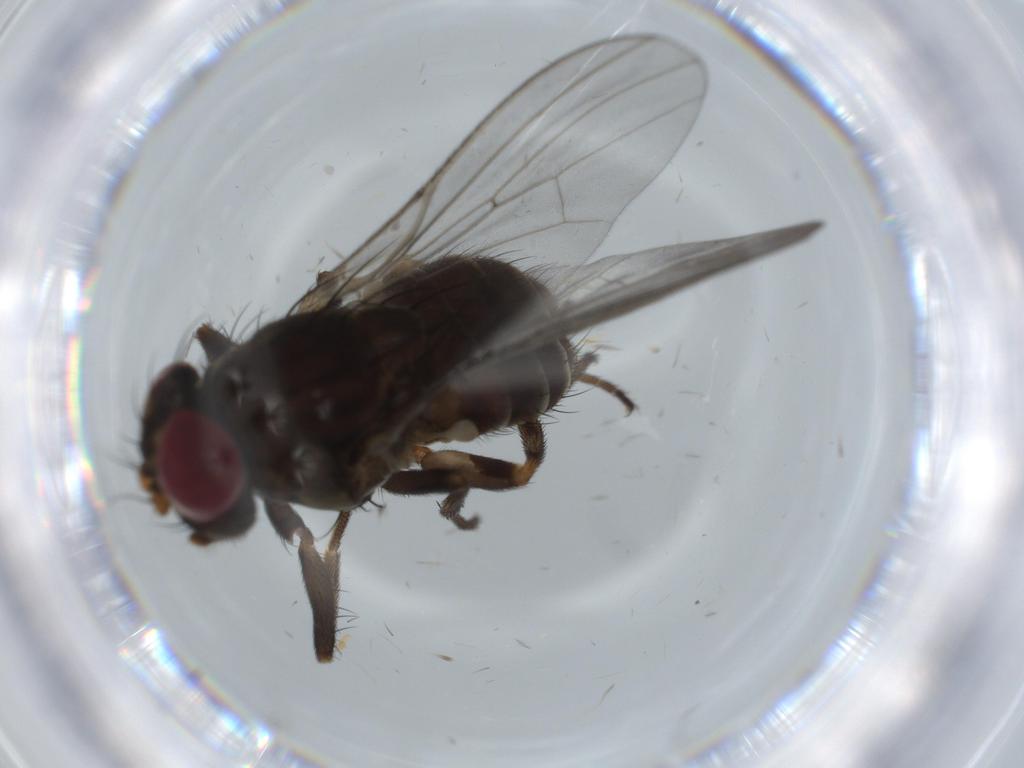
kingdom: Animalia
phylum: Arthropoda
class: Insecta
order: Diptera
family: Calliphoridae
